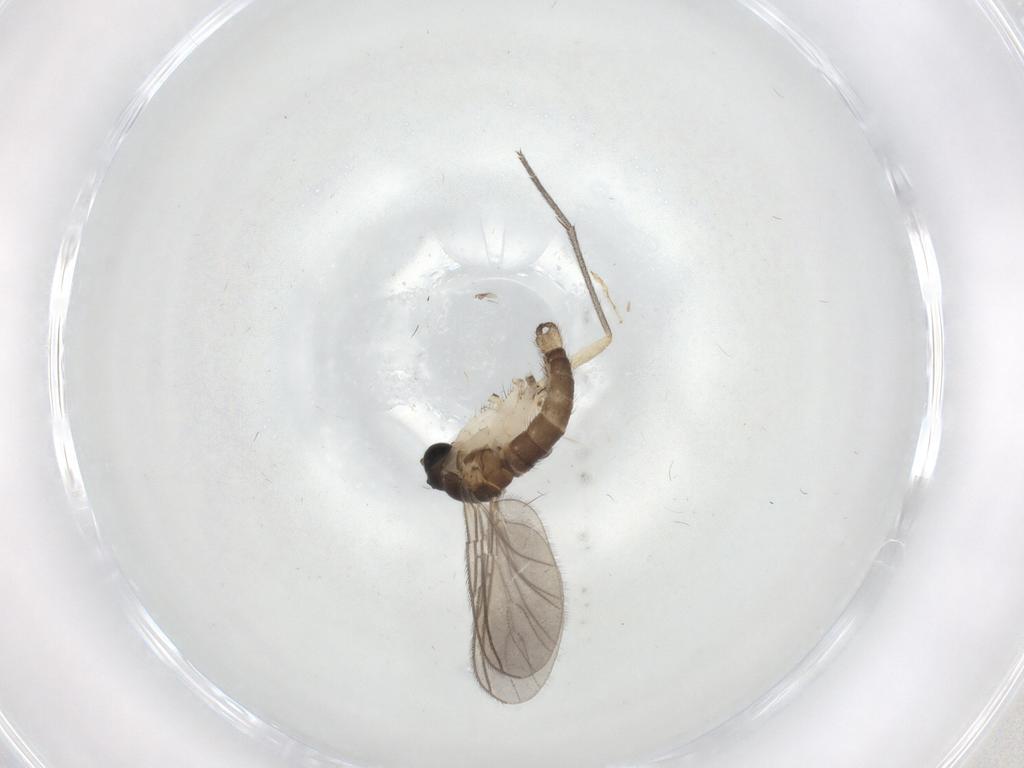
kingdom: Animalia
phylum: Arthropoda
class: Insecta
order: Diptera
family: Sciaridae
